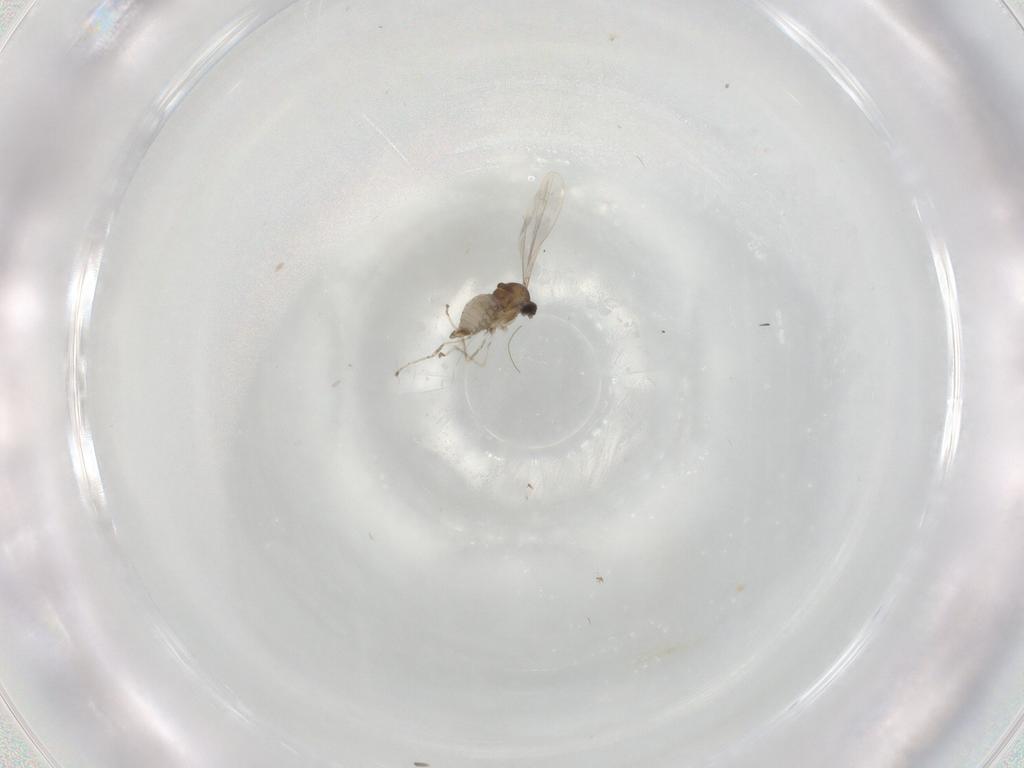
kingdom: Animalia
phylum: Arthropoda
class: Insecta
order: Diptera
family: Cecidomyiidae
